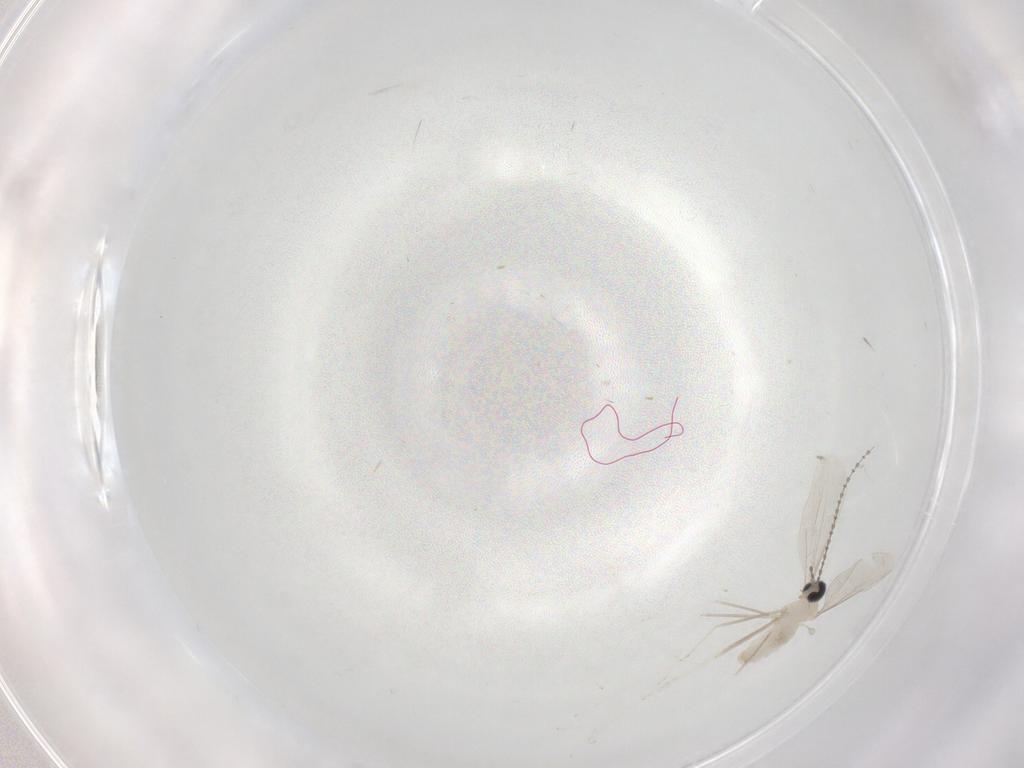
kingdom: Animalia
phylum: Arthropoda
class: Insecta
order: Diptera
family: Cecidomyiidae
